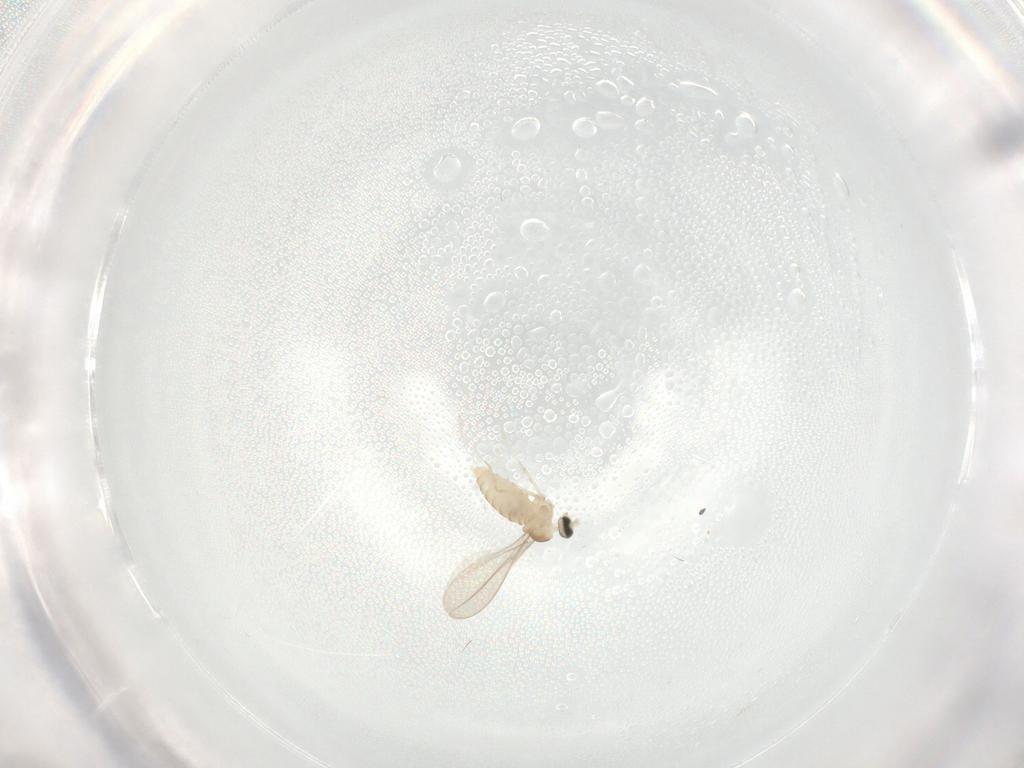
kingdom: Animalia
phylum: Arthropoda
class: Insecta
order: Diptera
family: Cecidomyiidae
